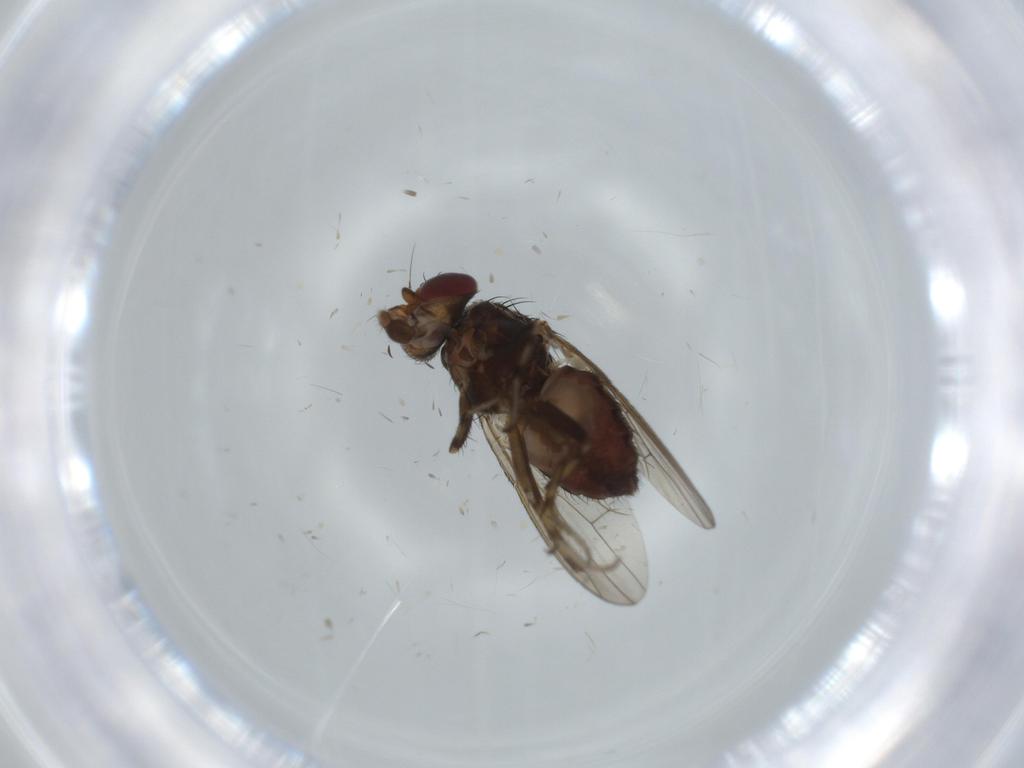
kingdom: Animalia
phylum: Arthropoda
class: Insecta
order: Diptera
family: Heleomyzidae
